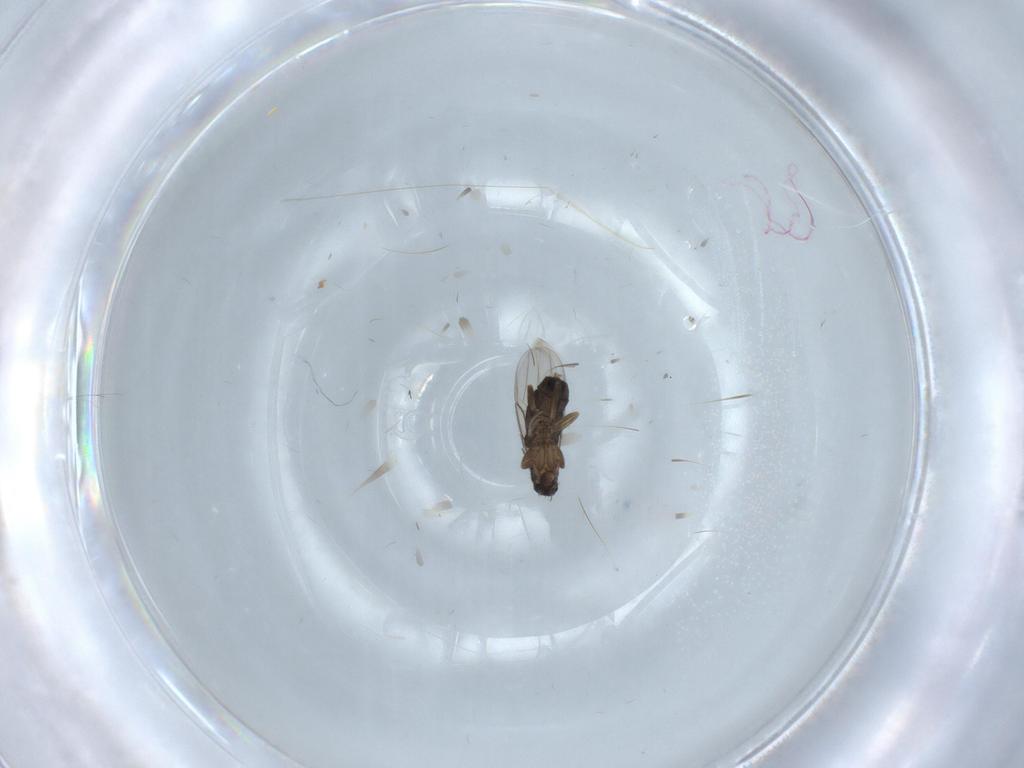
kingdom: Animalia
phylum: Arthropoda
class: Insecta
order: Diptera
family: Phoridae
